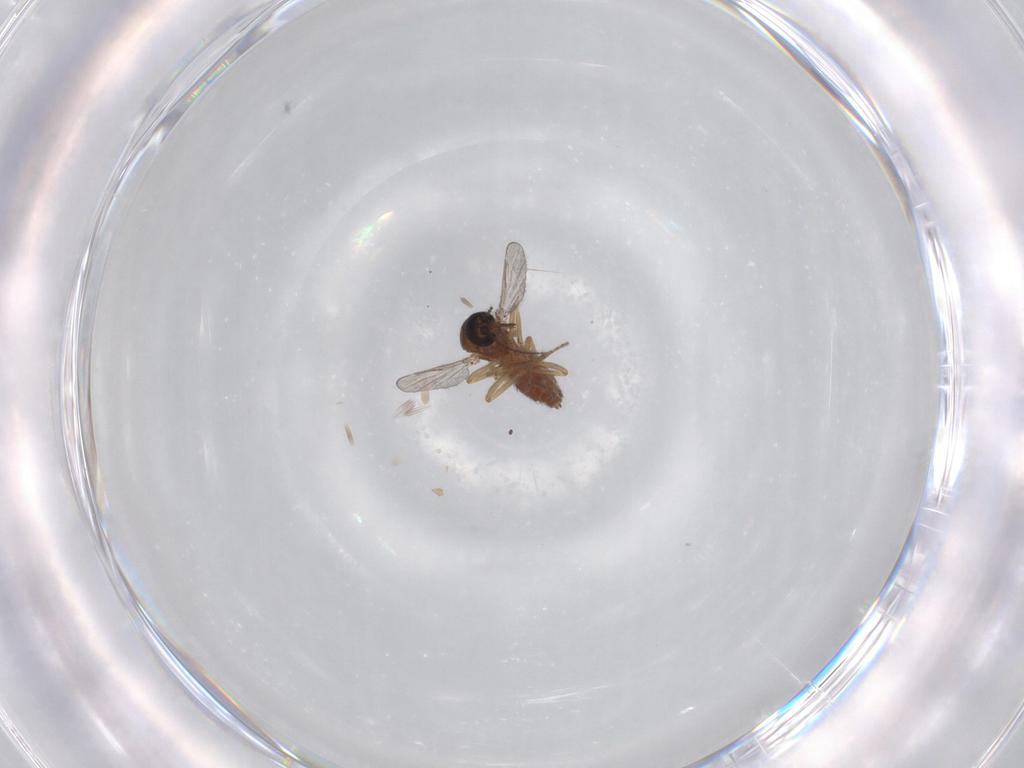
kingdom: Animalia
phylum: Arthropoda
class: Insecta
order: Diptera
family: Ceratopogonidae
